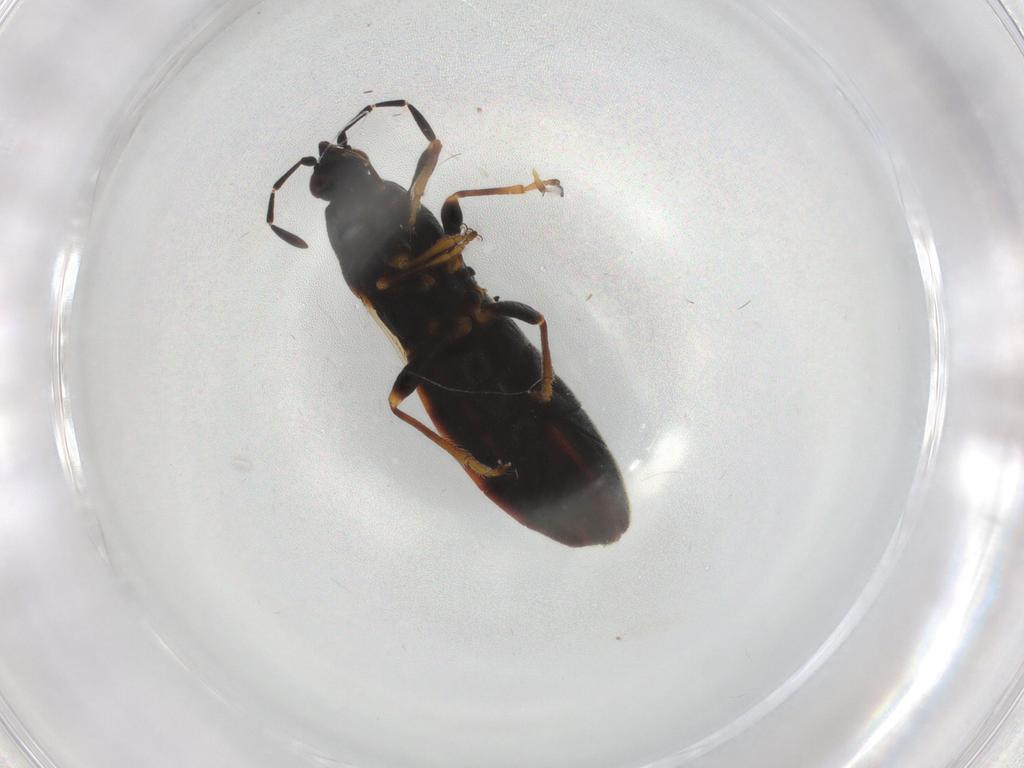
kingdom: Animalia
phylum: Arthropoda
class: Insecta
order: Hemiptera
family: Blissidae
